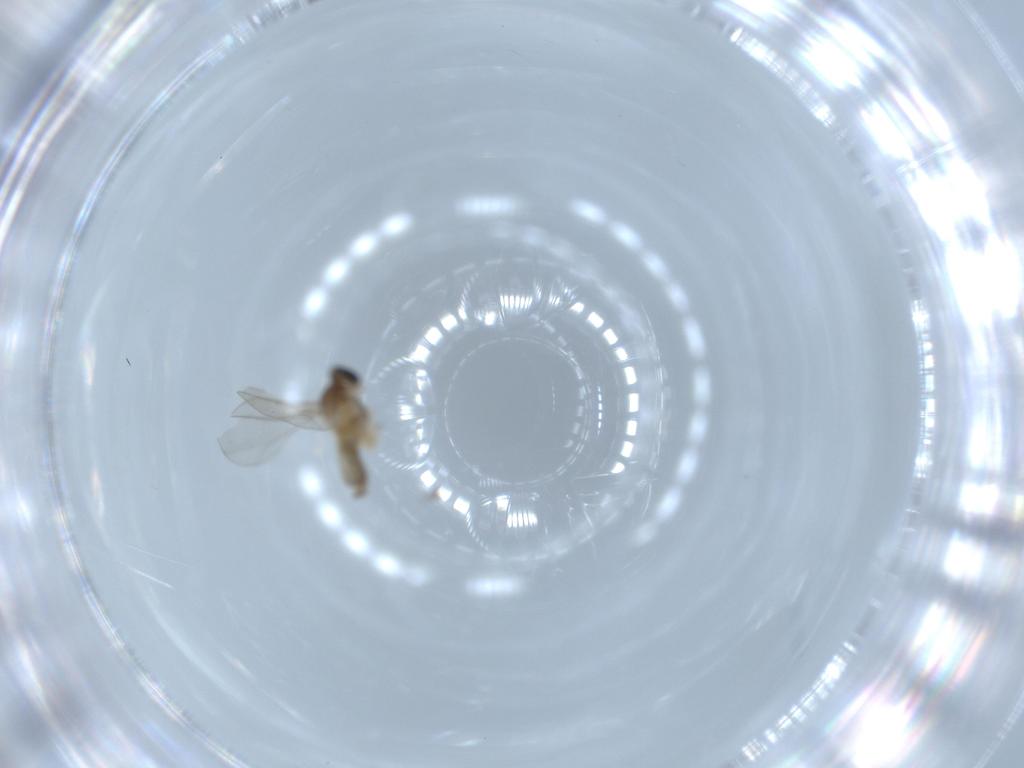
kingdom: Animalia
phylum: Arthropoda
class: Insecta
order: Diptera
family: Cecidomyiidae
